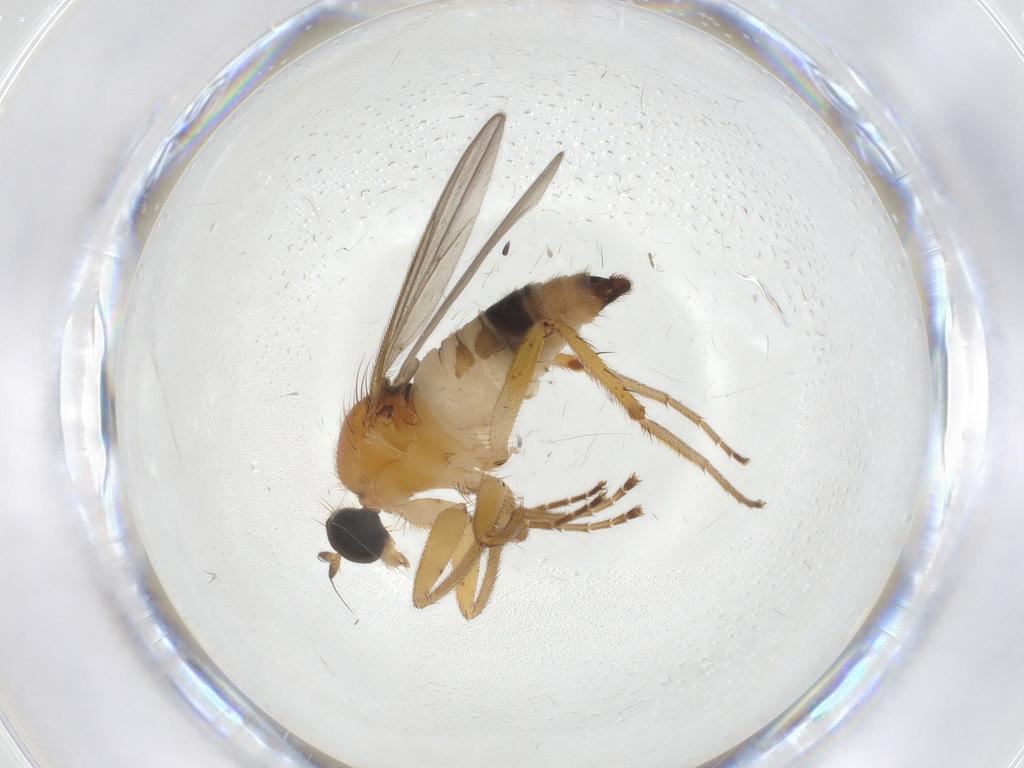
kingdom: Animalia
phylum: Arthropoda
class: Insecta
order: Diptera
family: Hybotidae
